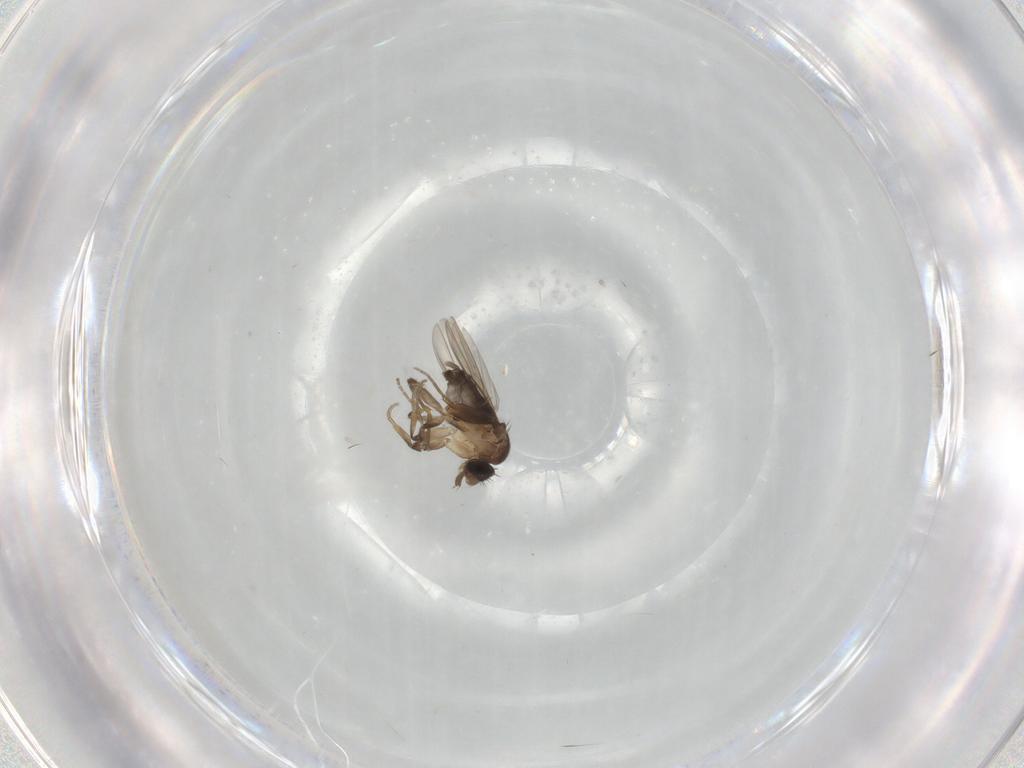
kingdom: Animalia
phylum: Arthropoda
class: Insecta
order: Diptera
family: Phoridae
